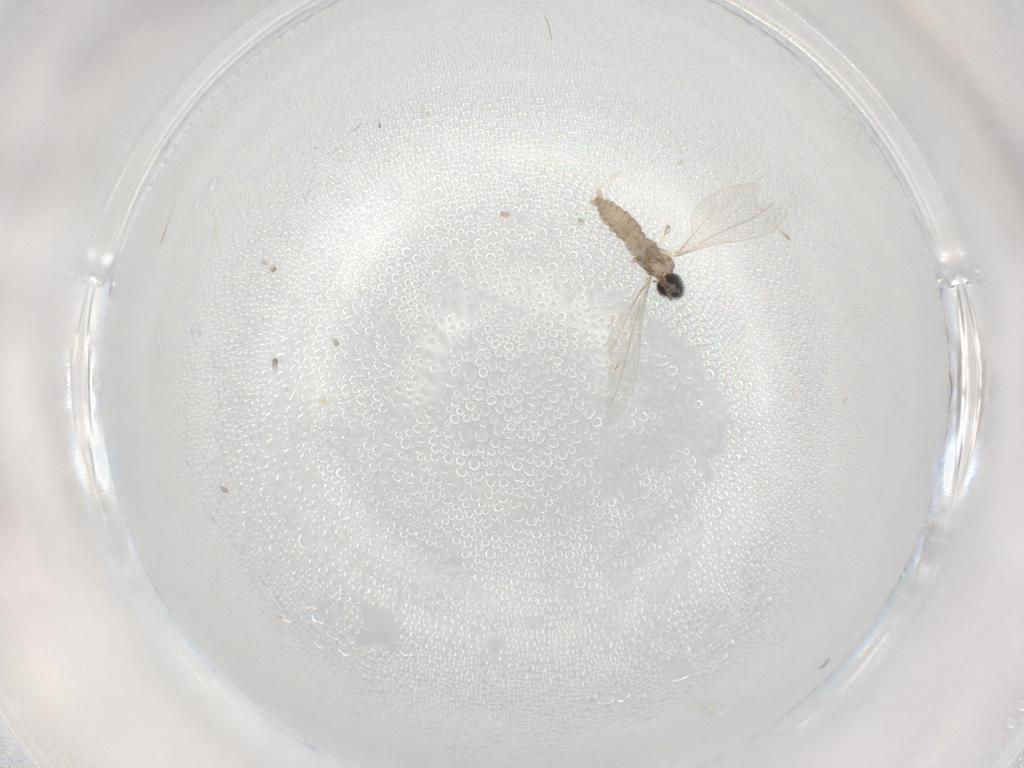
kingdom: Animalia
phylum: Arthropoda
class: Insecta
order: Diptera
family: Cecidomyiidae
